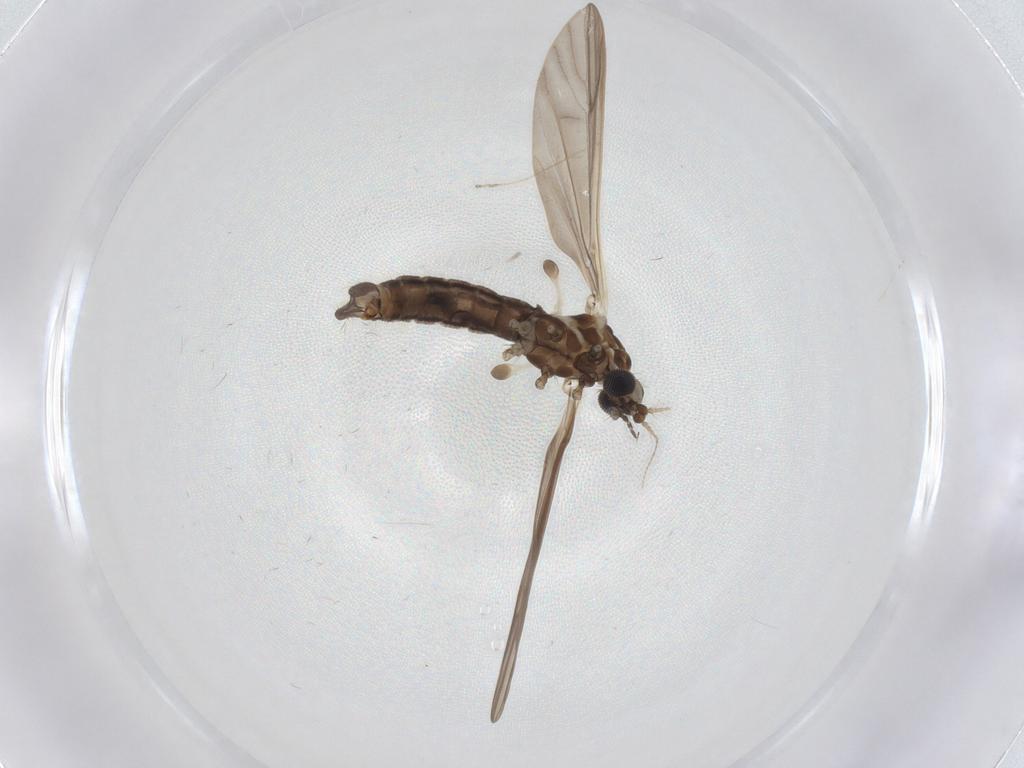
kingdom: Animalia
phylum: Arthropoda
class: Insecta
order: Diptera
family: Limoniidae
